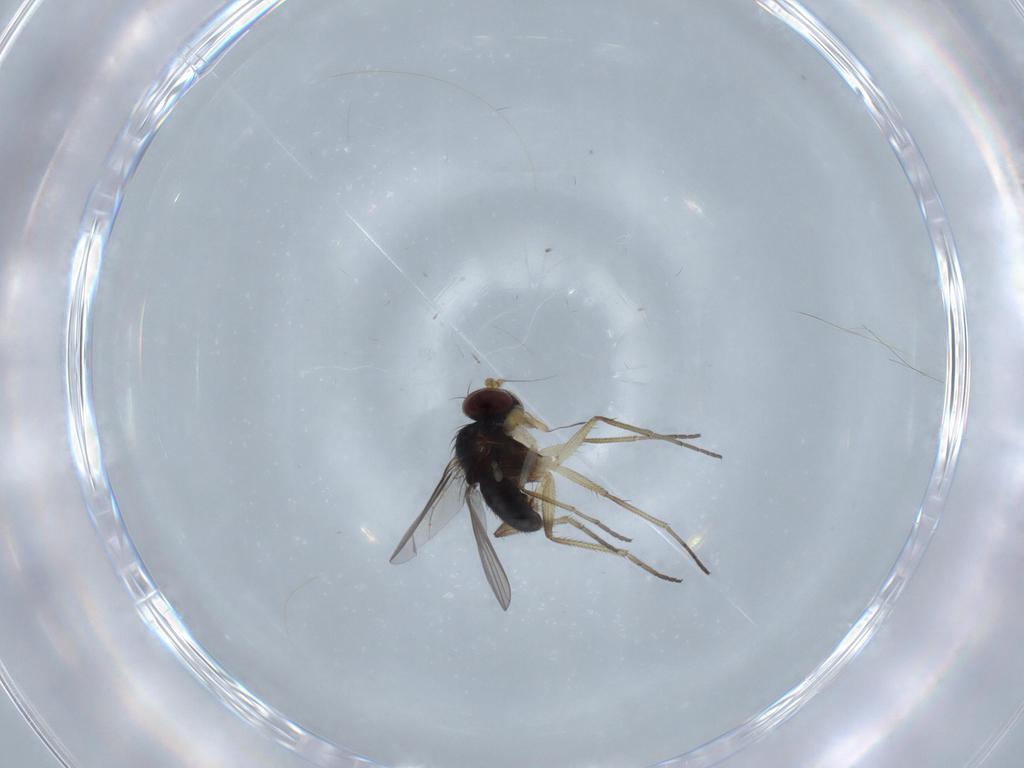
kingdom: Animalia
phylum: Arthropoda
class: Insecta
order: Diptera
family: Dolichopodidae
